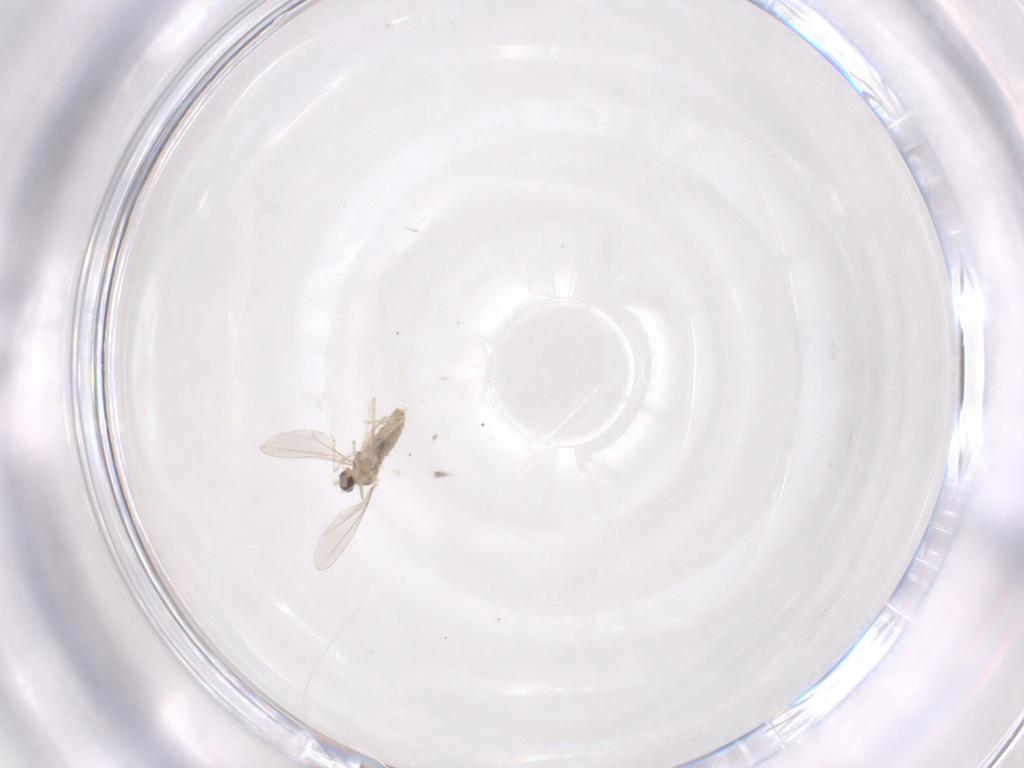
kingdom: Animalia
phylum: Arthropoda
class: Insecta
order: Diptera
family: Cecidomyiidae
